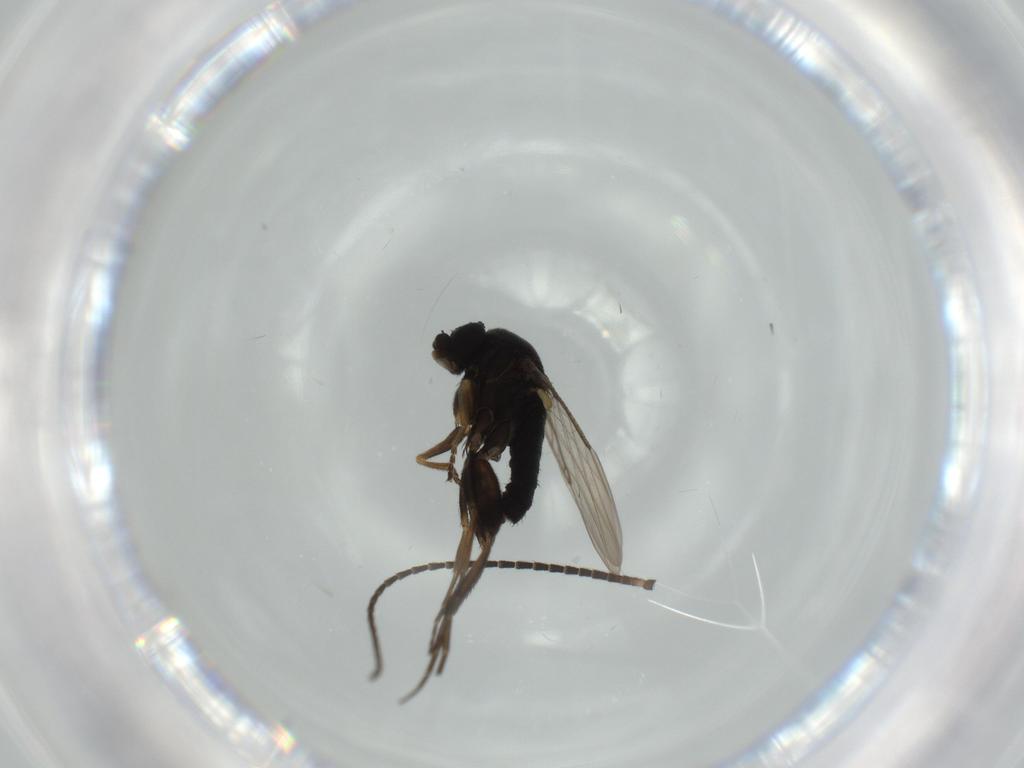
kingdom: Animalia
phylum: Arthropoda
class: Insecta
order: Diptera
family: Phoridae
